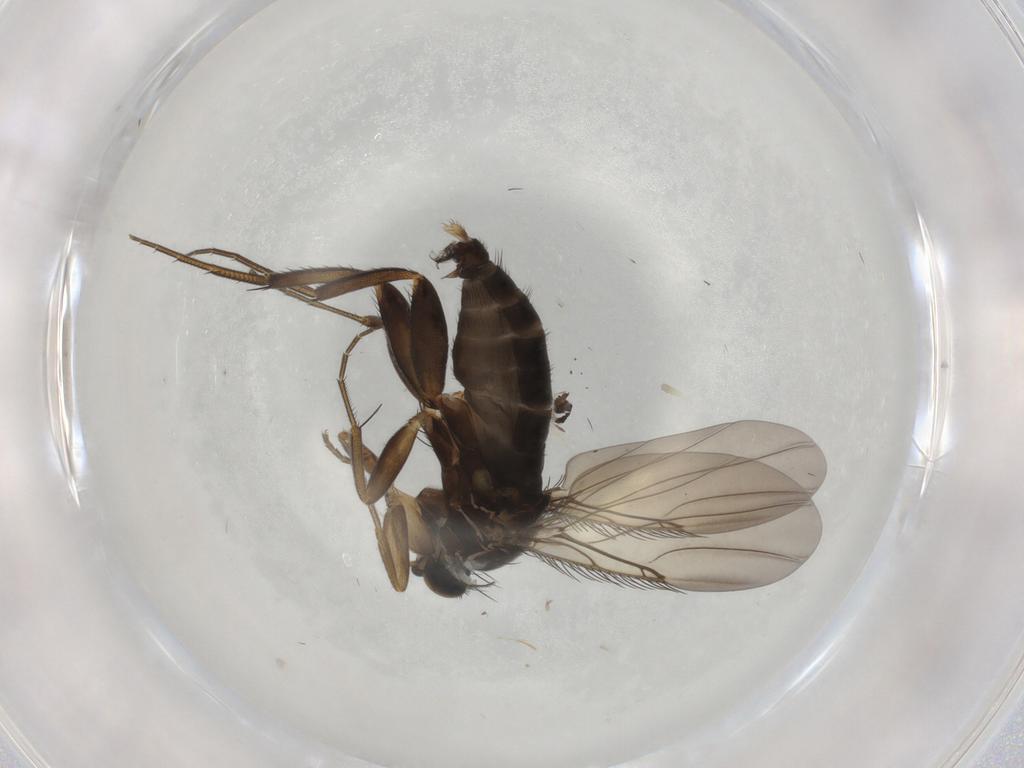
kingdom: Animalia
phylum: Arthropoda
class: Insecta
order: Diptera
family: Phoridae
